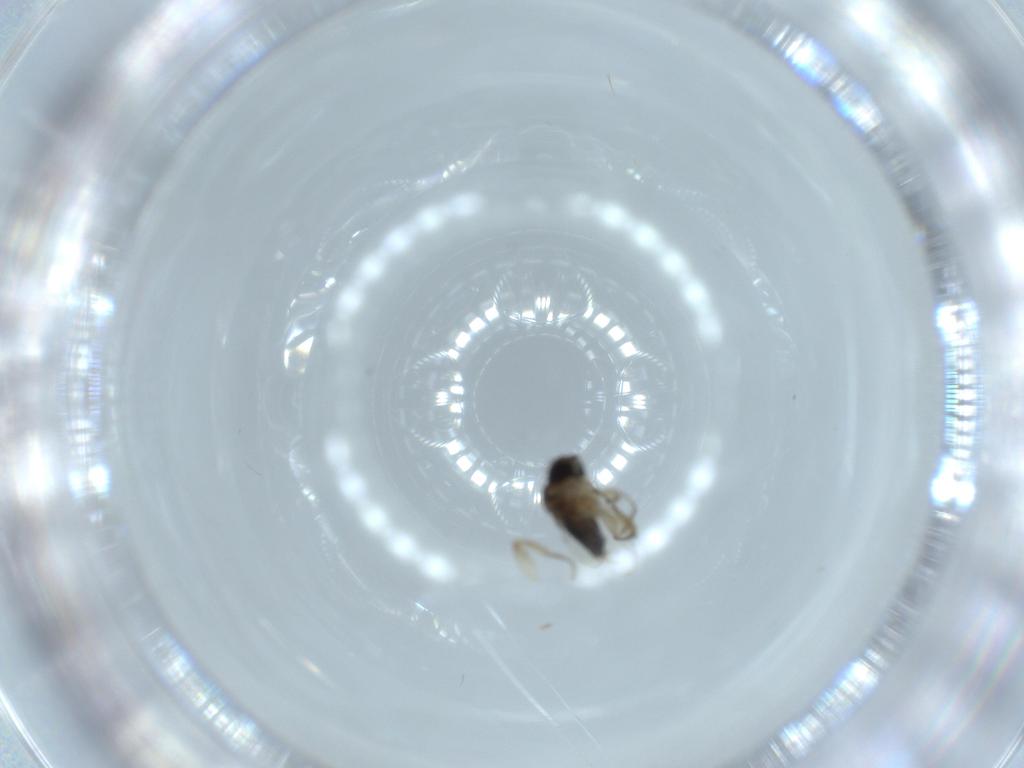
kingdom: Animalia
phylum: Arthropoda
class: Insecta
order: Diptera
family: Phoridae
